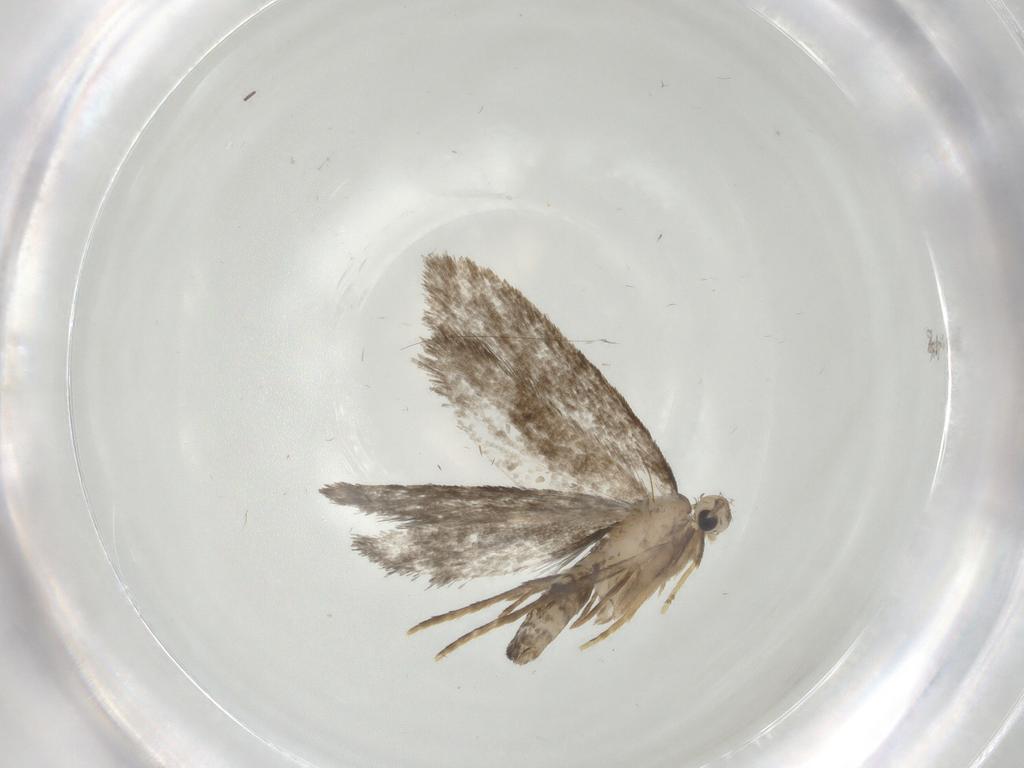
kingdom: Animalia
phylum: Arthropoda
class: Insecta
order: Lepidoptera
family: Psychidae
